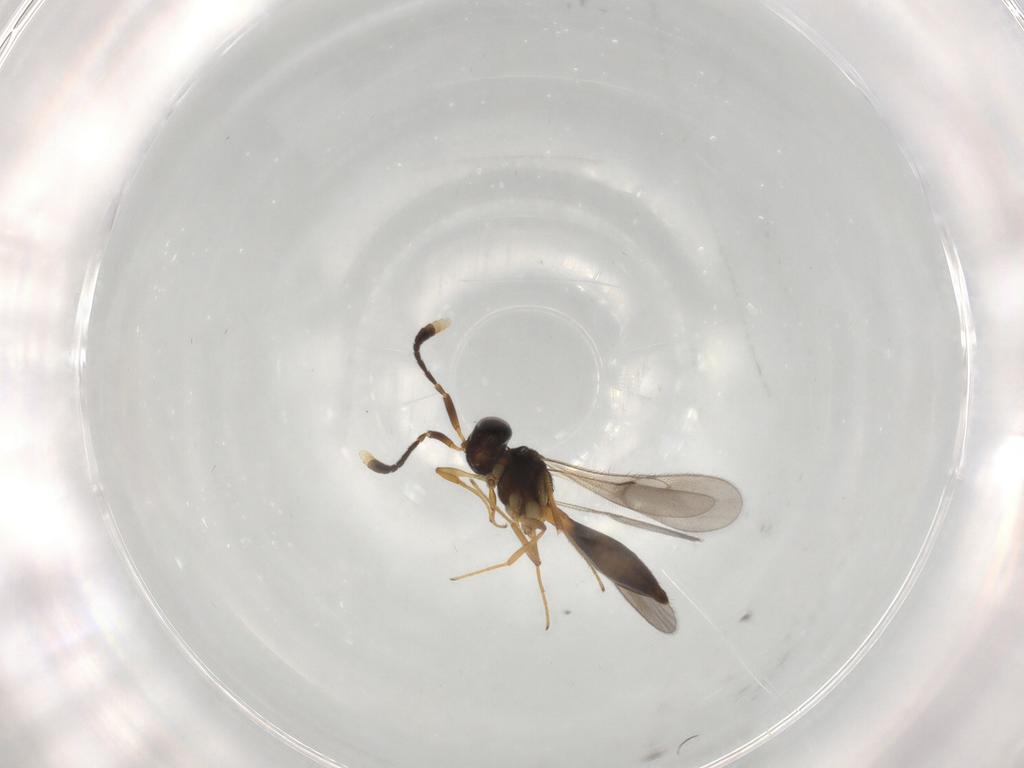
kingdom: Animalia
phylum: Arthropoda
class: Insecta
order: Hymenoptera
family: Scelionidae
